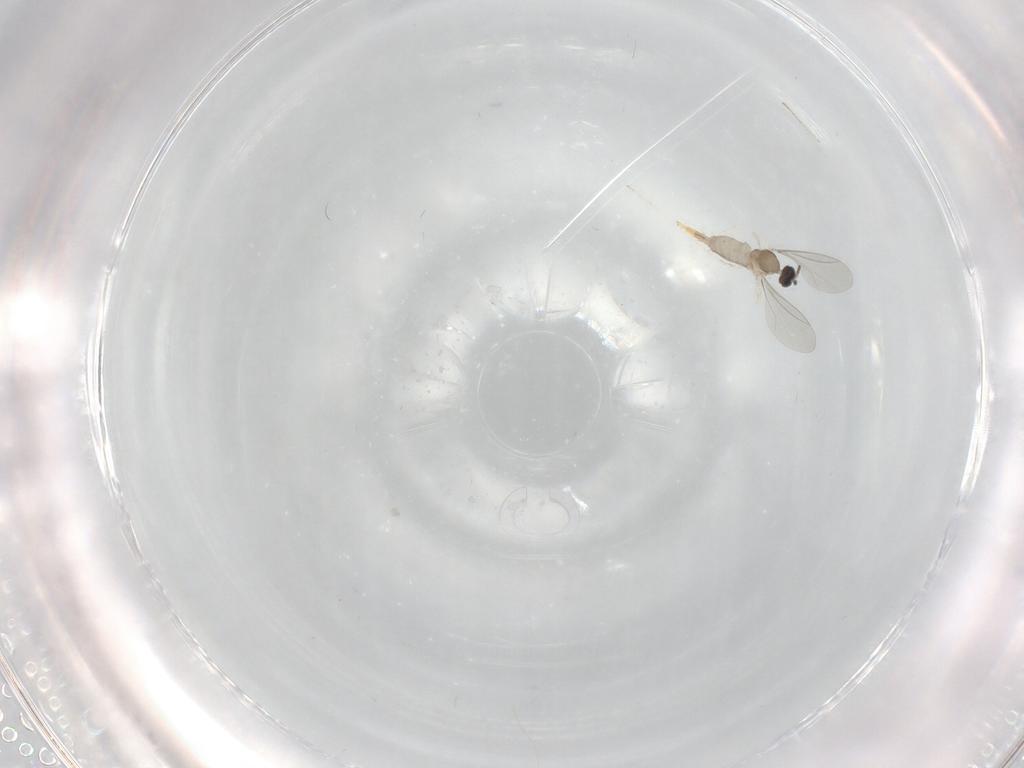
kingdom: Animalia
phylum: Arthropoda
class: Insecta
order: Diptera
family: Cecidomyiidae
